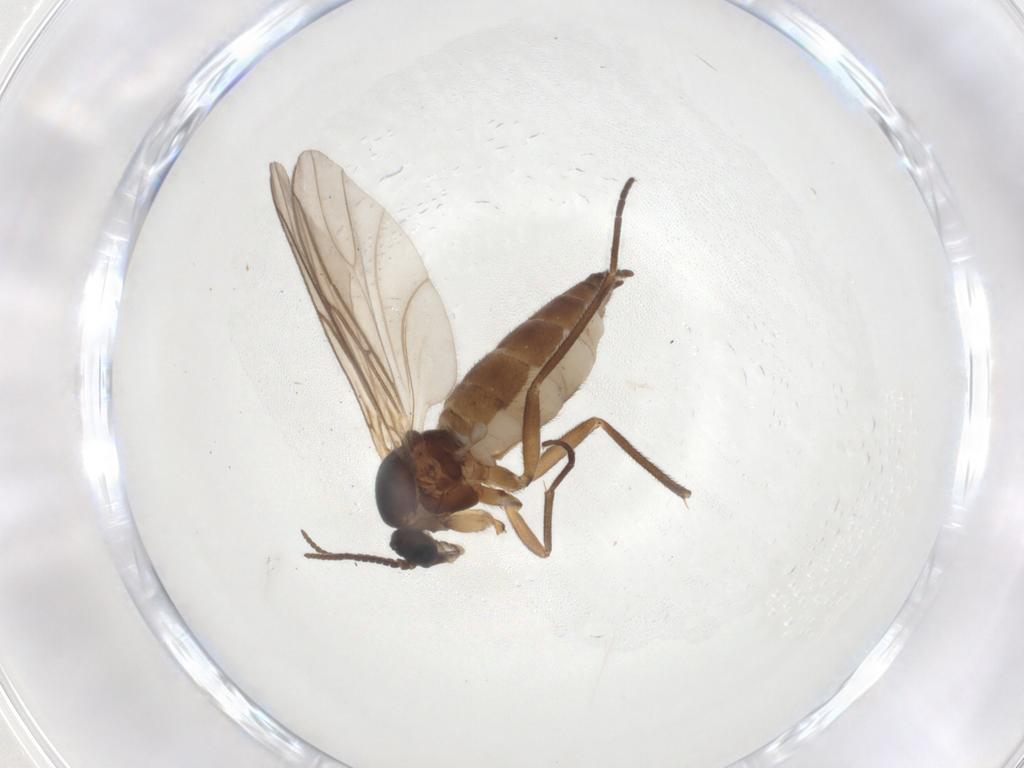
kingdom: Animalia
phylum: Arthropoda
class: Insecta
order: Diptera
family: Sciaridae
